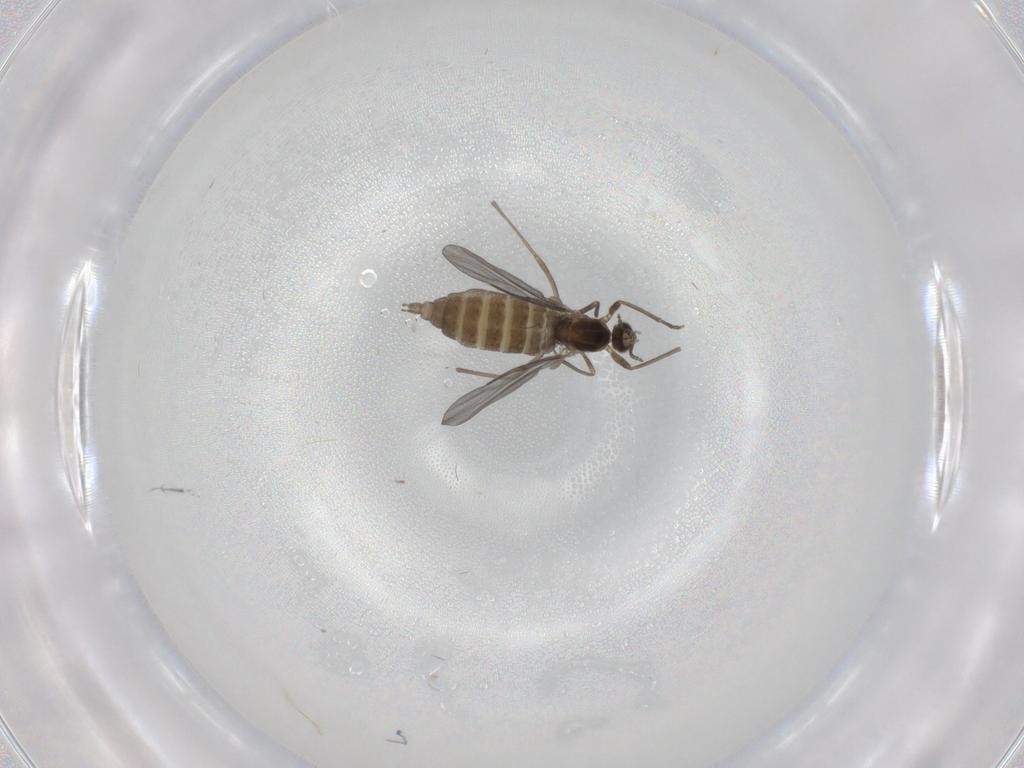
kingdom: Animalia
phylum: Arthropoda
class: Insecta
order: Diptera
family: Cecidomyiidae
